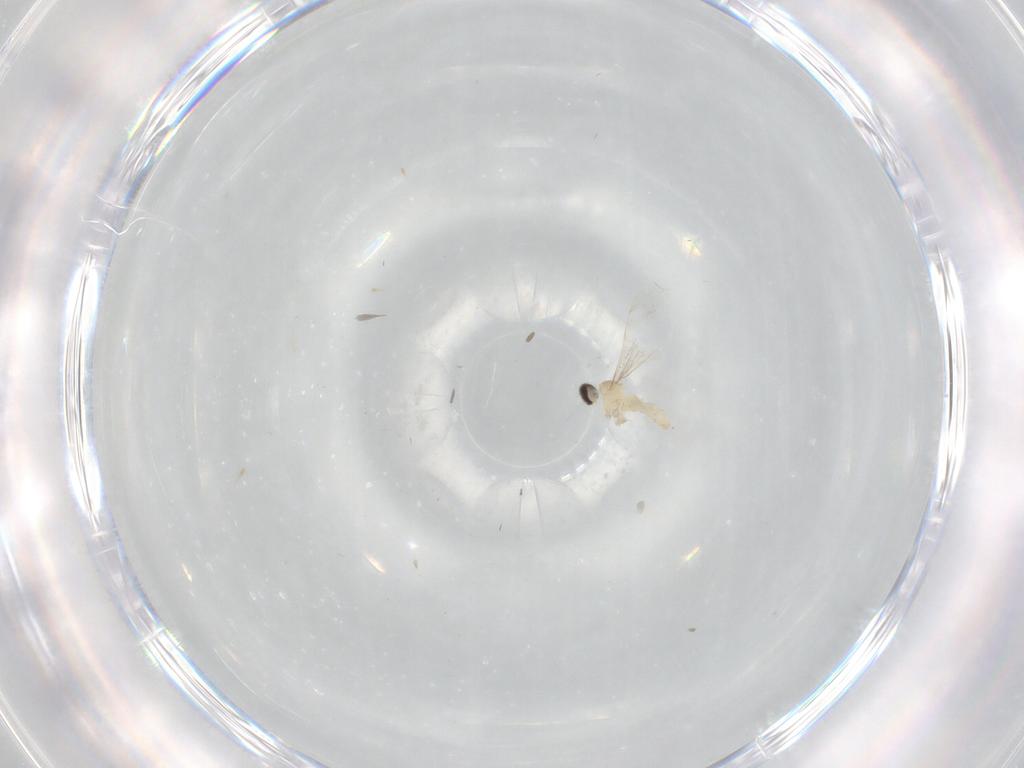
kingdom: Animalia
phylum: Arthropoda
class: Insecta
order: Diptera
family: Cecidomyiidae
